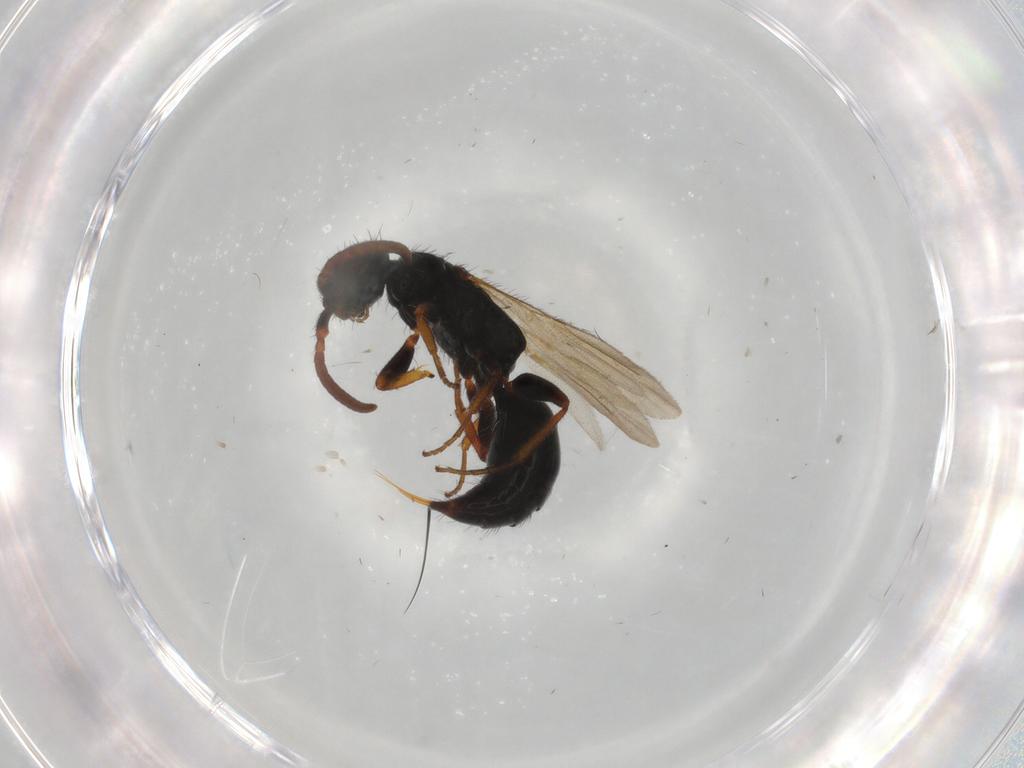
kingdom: Animalia
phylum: Arthropoda
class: Insecta
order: Hymenoptera
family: Bethylidae
